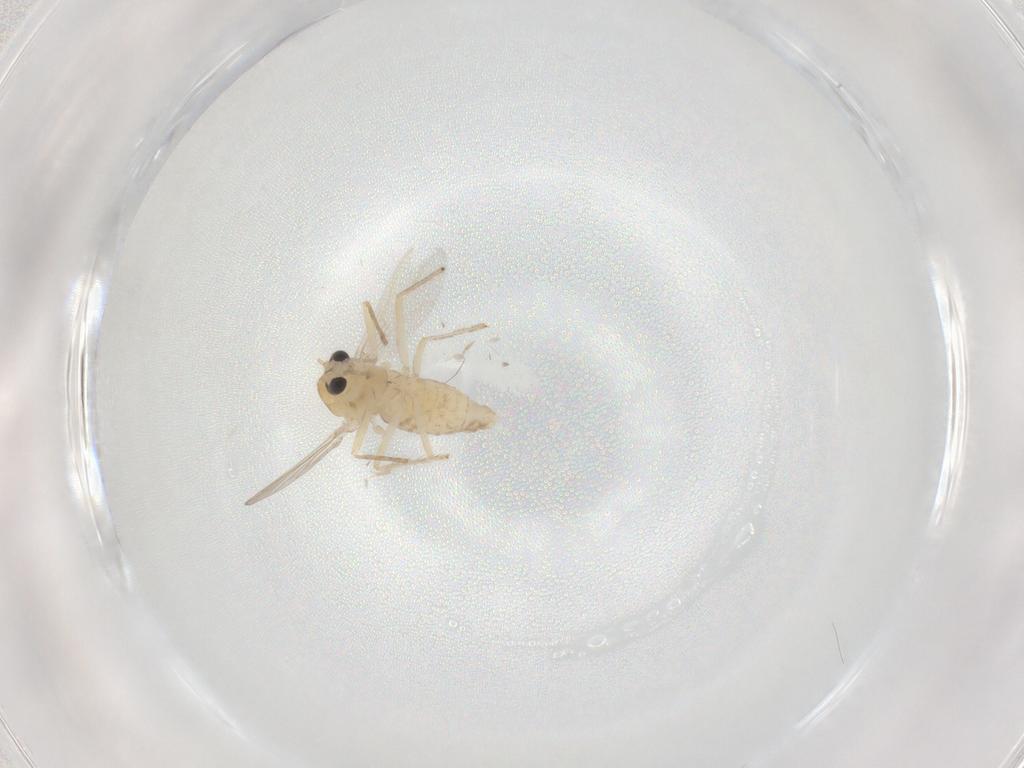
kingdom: Animalia
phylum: Arthropoda
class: Insecta
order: Diptera
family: Chironomidae
